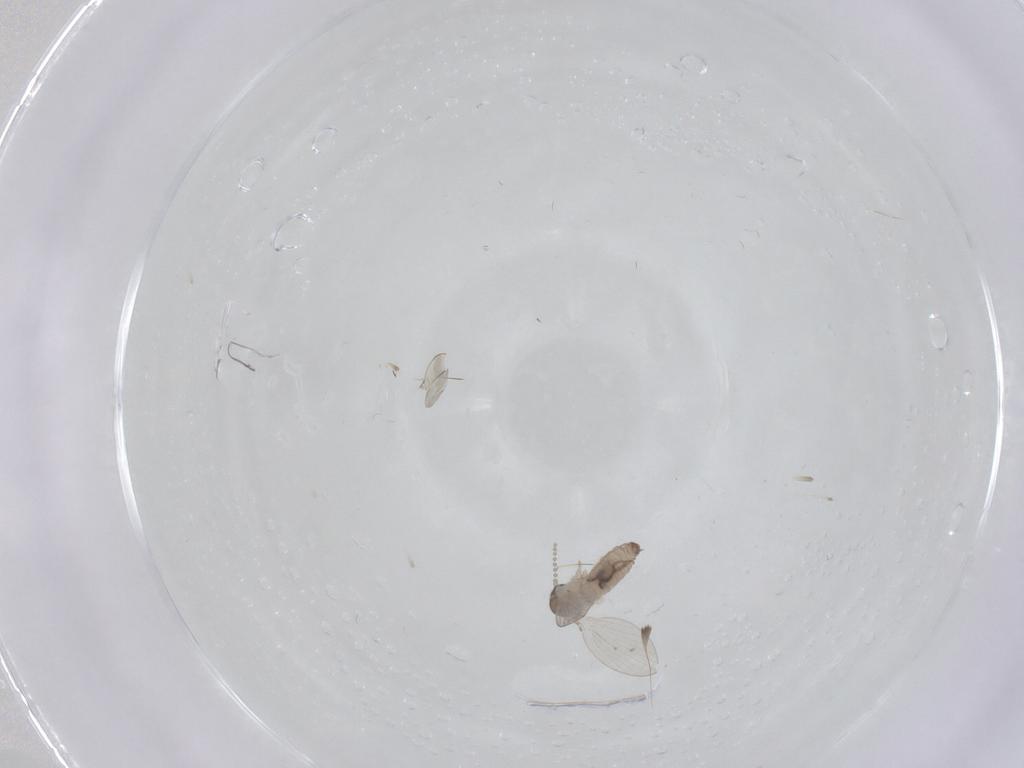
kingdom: Animalia
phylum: Arthropoda
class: Insecta
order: Diptera
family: Psychodidae
